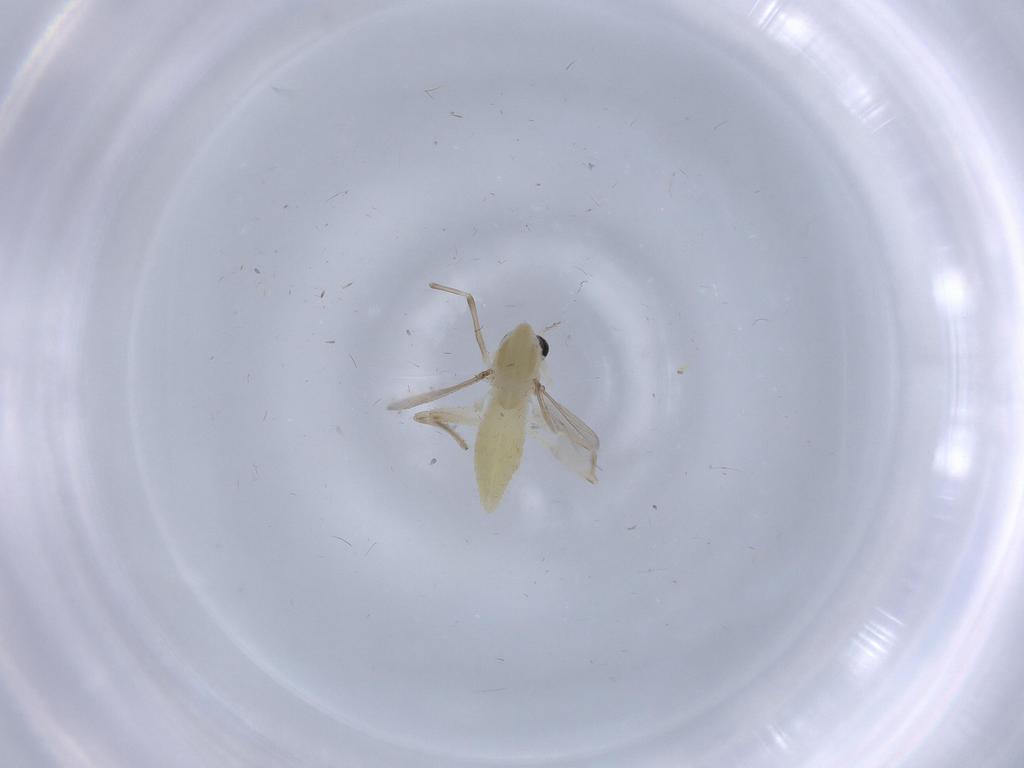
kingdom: Animalia
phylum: Arthropoda
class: Insecta
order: Diptera
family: Chironomidae
